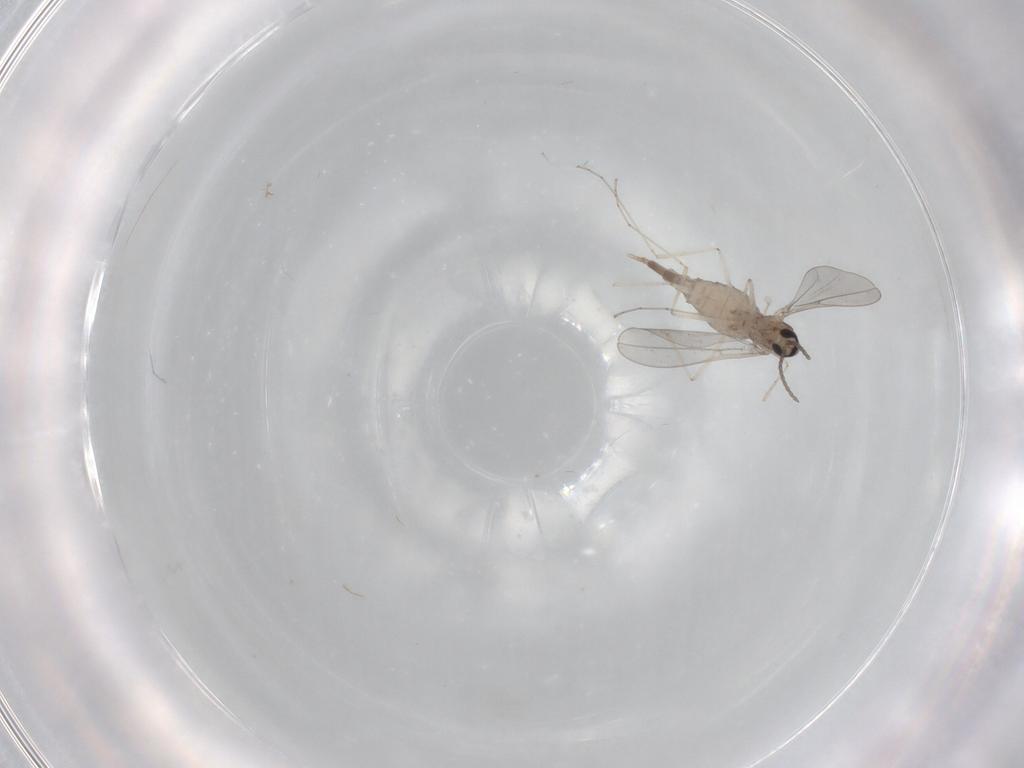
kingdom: Animalia
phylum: Arthropoda
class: Insecta
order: Diptera
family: Cecidomyiidae
